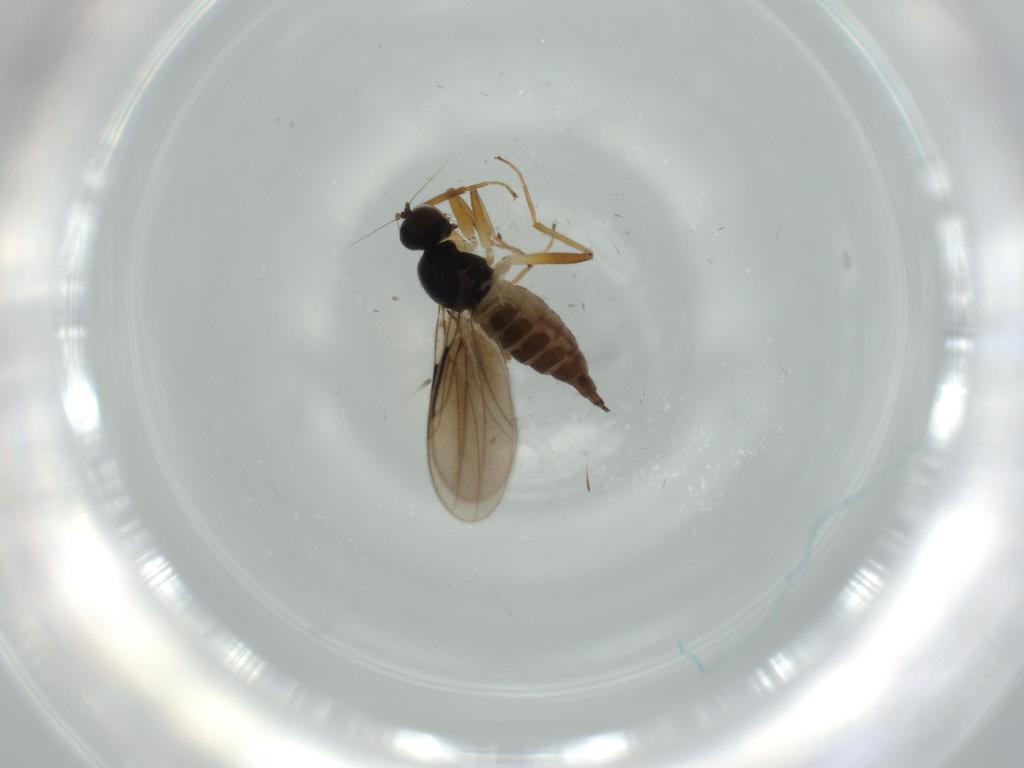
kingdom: Animalia
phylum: Arthropoda
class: Insecta
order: Diptera
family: Hybotidae
